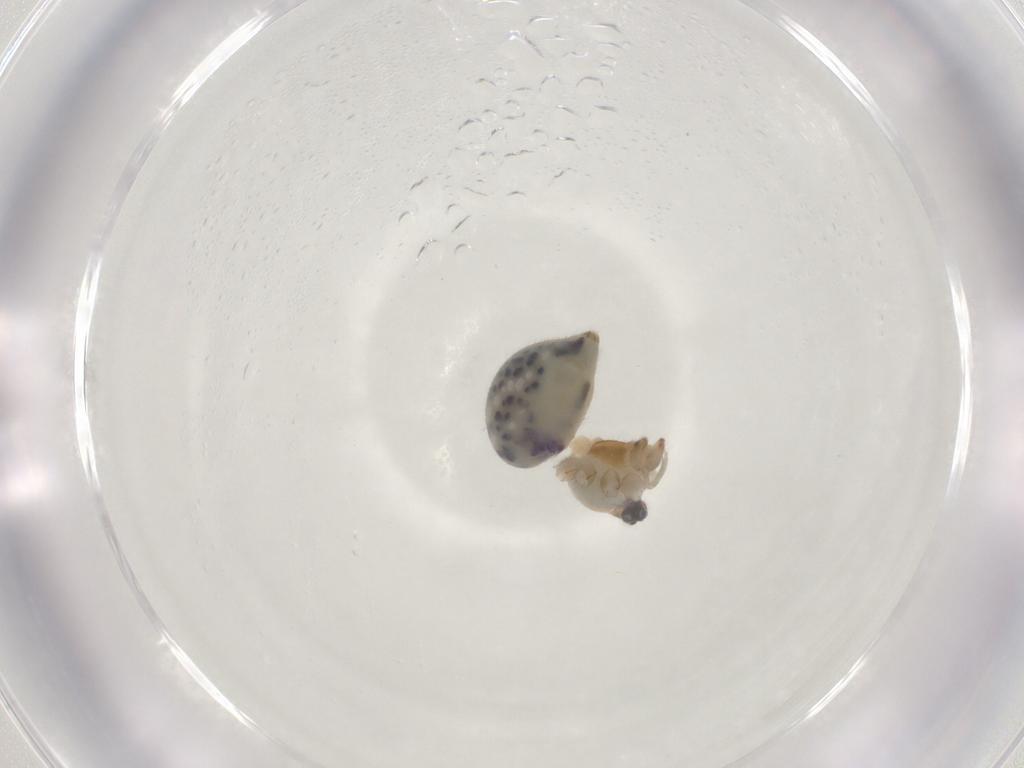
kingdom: Animalia
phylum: Arthropoda
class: Arachnida
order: Araneae
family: Pholcidae
